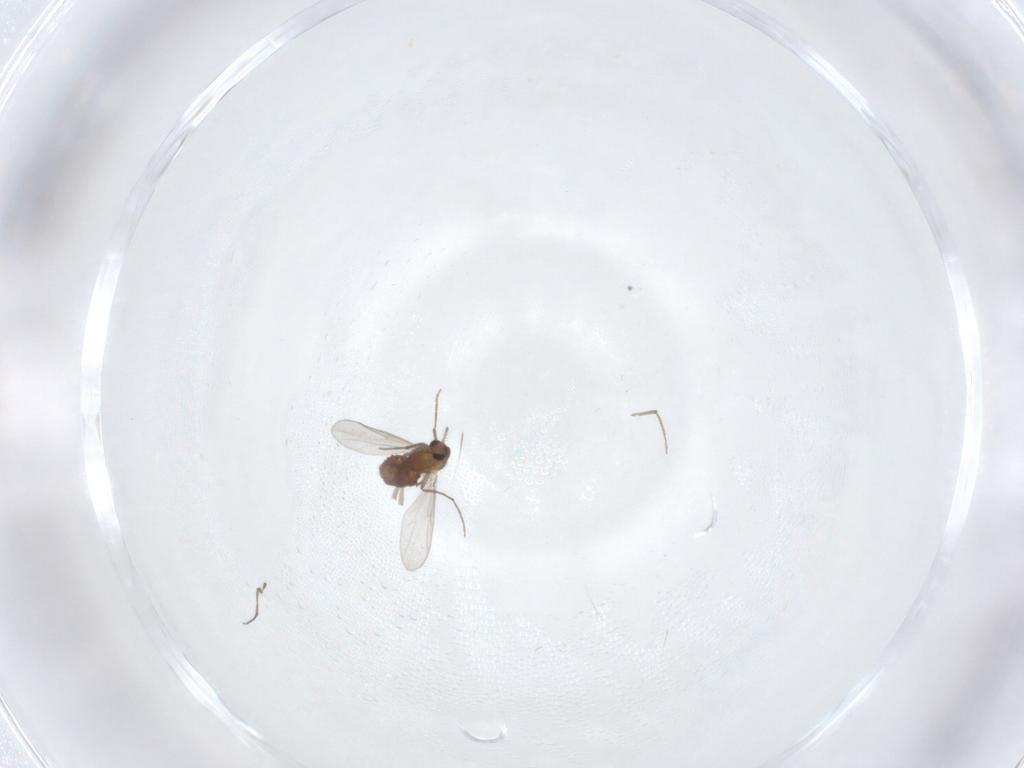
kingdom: Animalia
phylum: Arthropoda
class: Insecta
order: Diptera
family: Chironomidae
